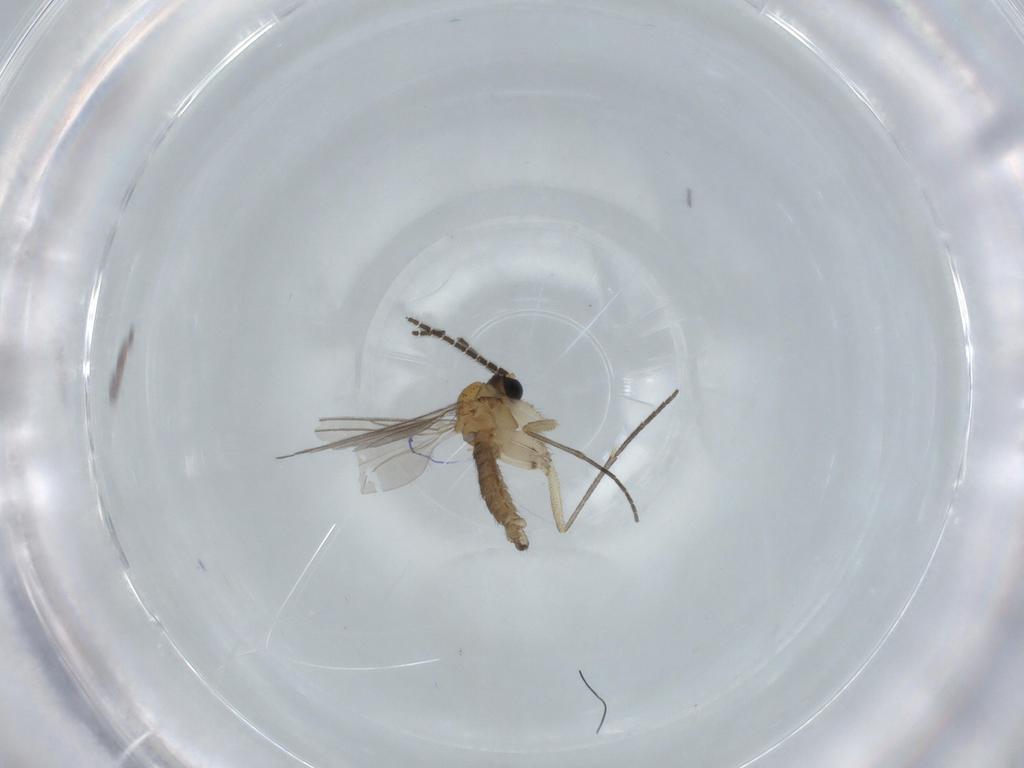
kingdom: Animalia
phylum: Arthropoda
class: Insecta
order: Diptera
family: Sciaridae
